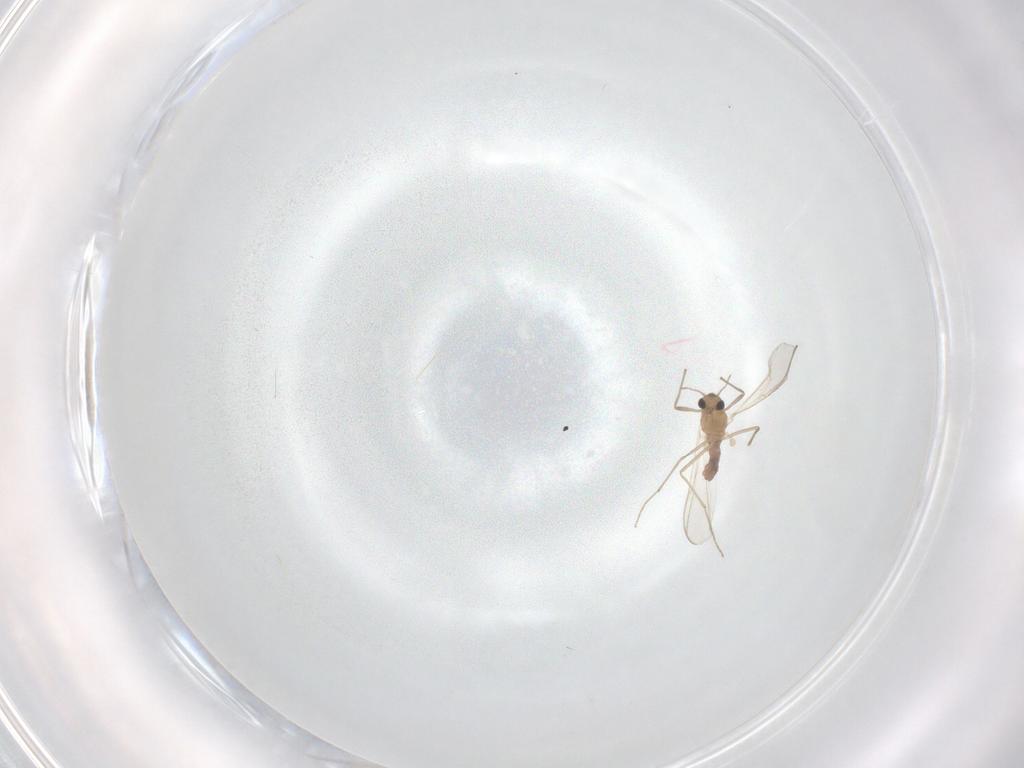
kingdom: Animalia
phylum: Arthropoda
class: Insecta
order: Diptera
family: Chironomidae
